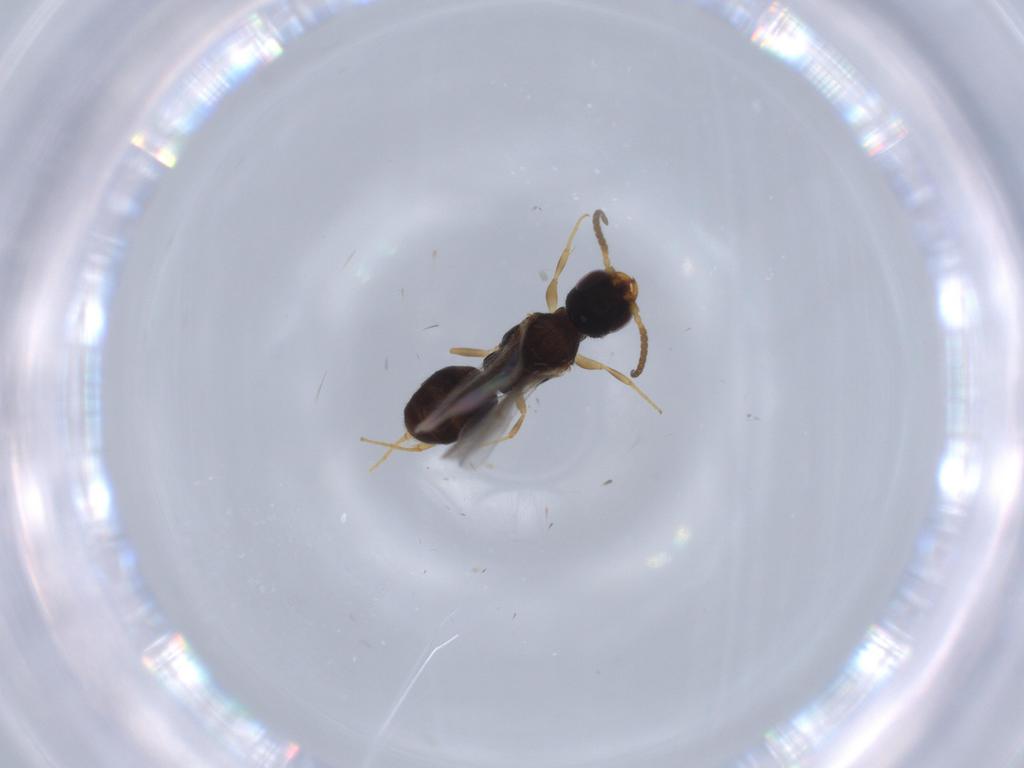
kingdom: Animalia
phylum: Arthropoda
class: Insecta
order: Hymenoptera
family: Bethylidae
